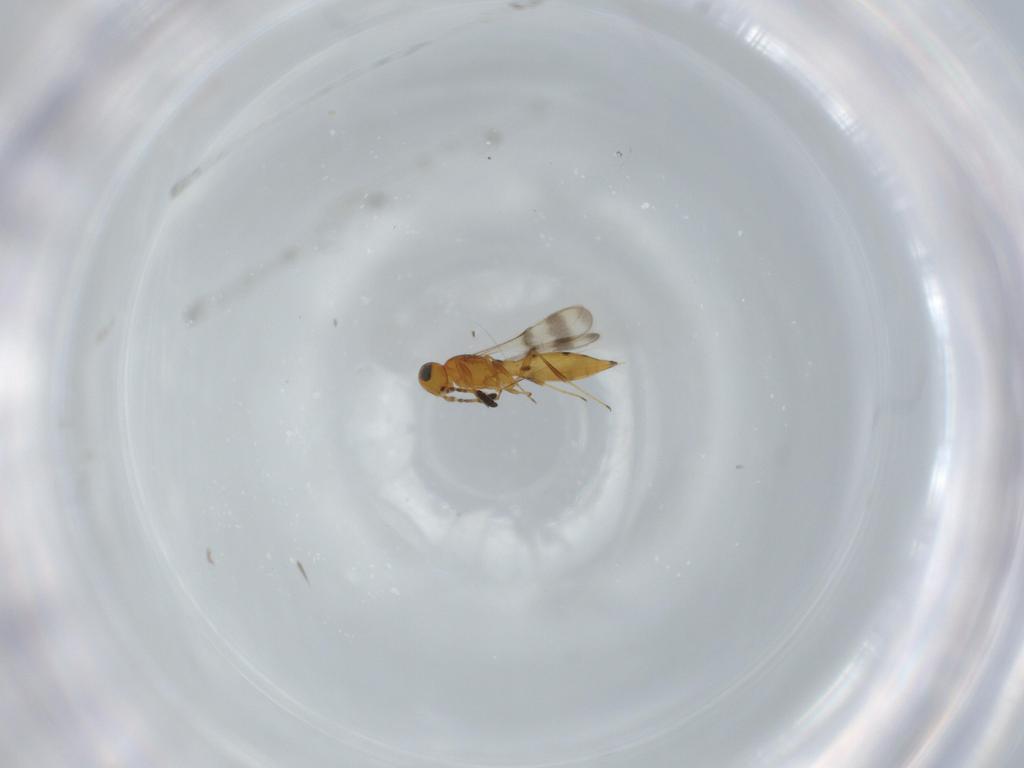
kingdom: Animalia
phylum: Arthropoda
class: Insecta
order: Hymenoptera
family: Scelionidae
